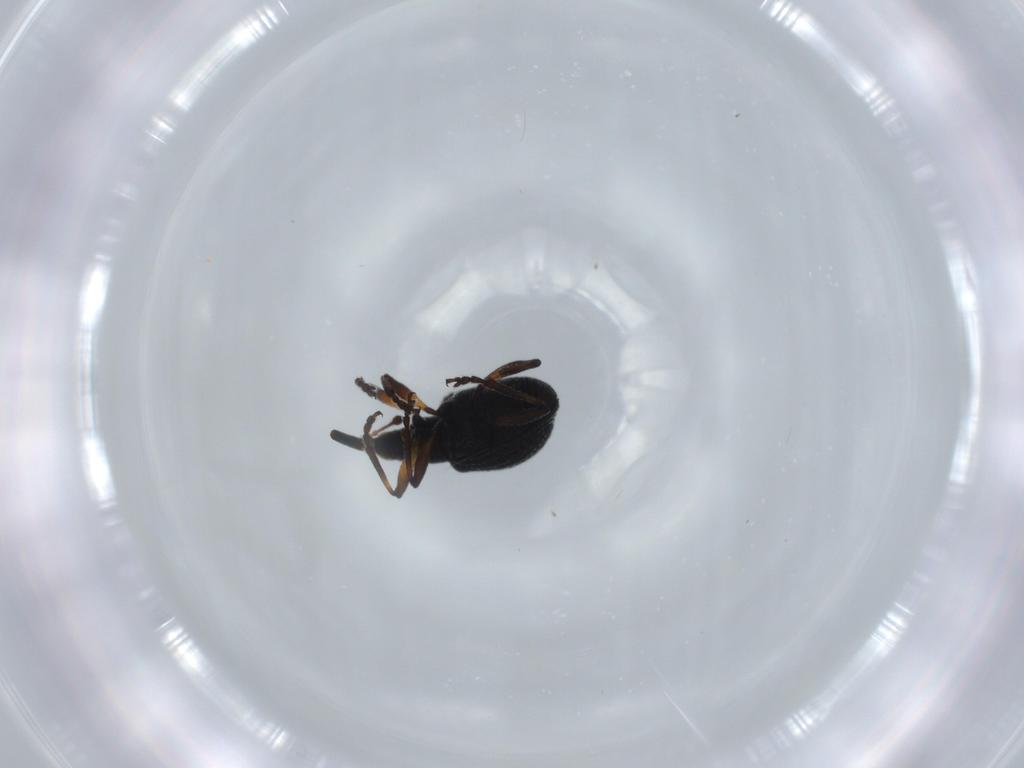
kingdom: Animalia
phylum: Arthropoda
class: Insecta
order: Coleoptera
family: Brentidae
